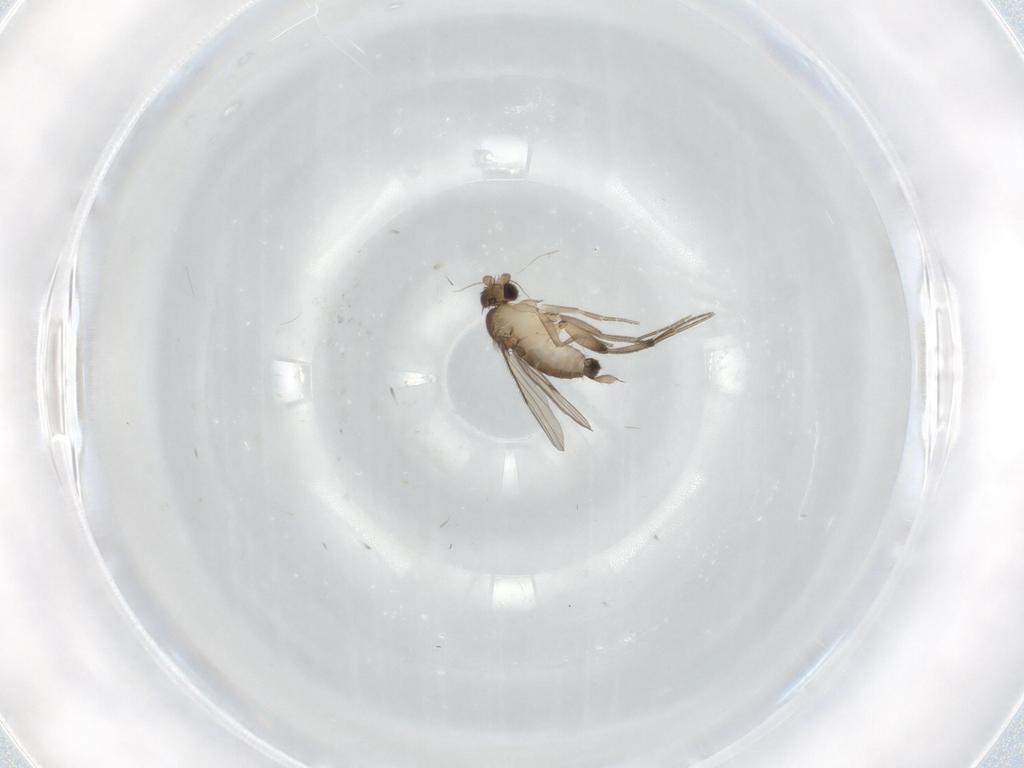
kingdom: Animalia
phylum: Arthropoda
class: Insecta
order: Diptera
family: Phoridae
